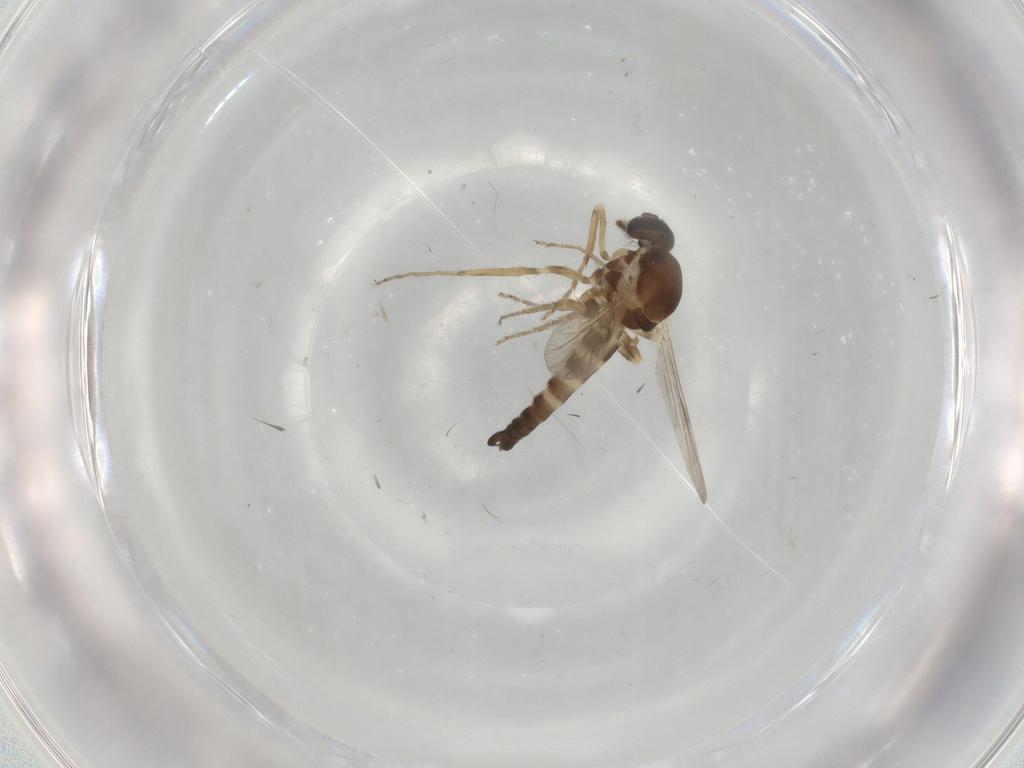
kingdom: Animalia
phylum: Arthropoda
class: Insecta
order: Diptera
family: Ceratopogonidae
